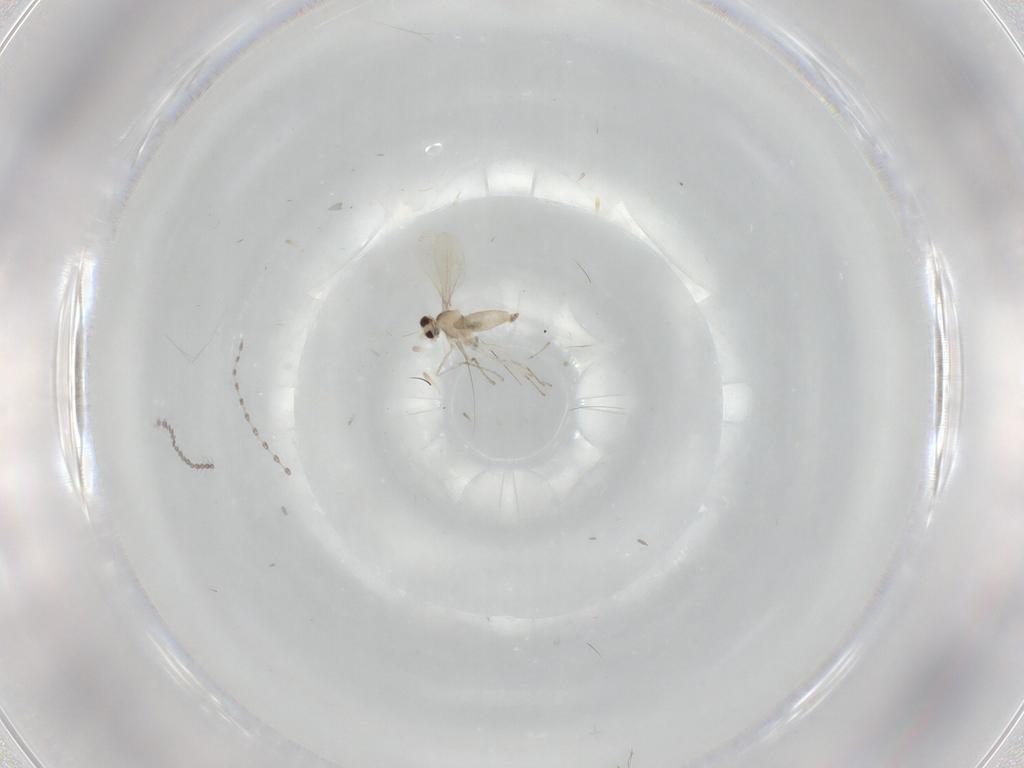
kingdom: Animalia
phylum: Arthropoda
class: Insecta
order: Diptera
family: Cecidomyiidae
